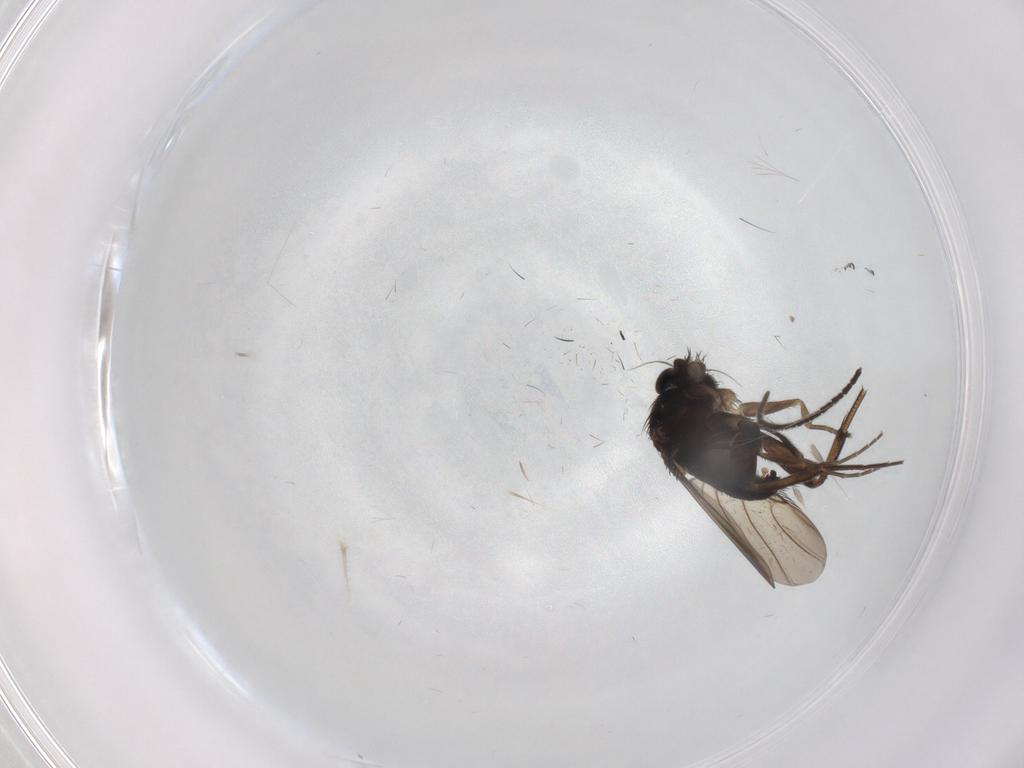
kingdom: Animalia
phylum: Arthropoda
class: Insecta
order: Diptera
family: Phoridae
